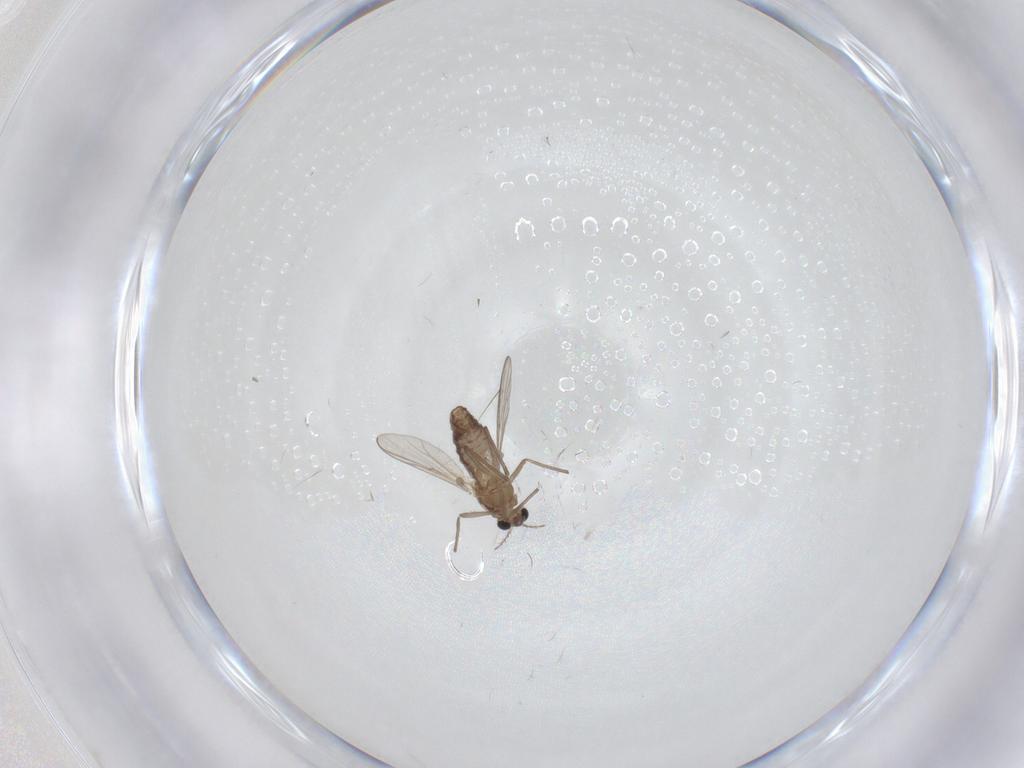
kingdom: Animalia
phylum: Arthropoda
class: Insecta
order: Diptera
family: Chironomidae
